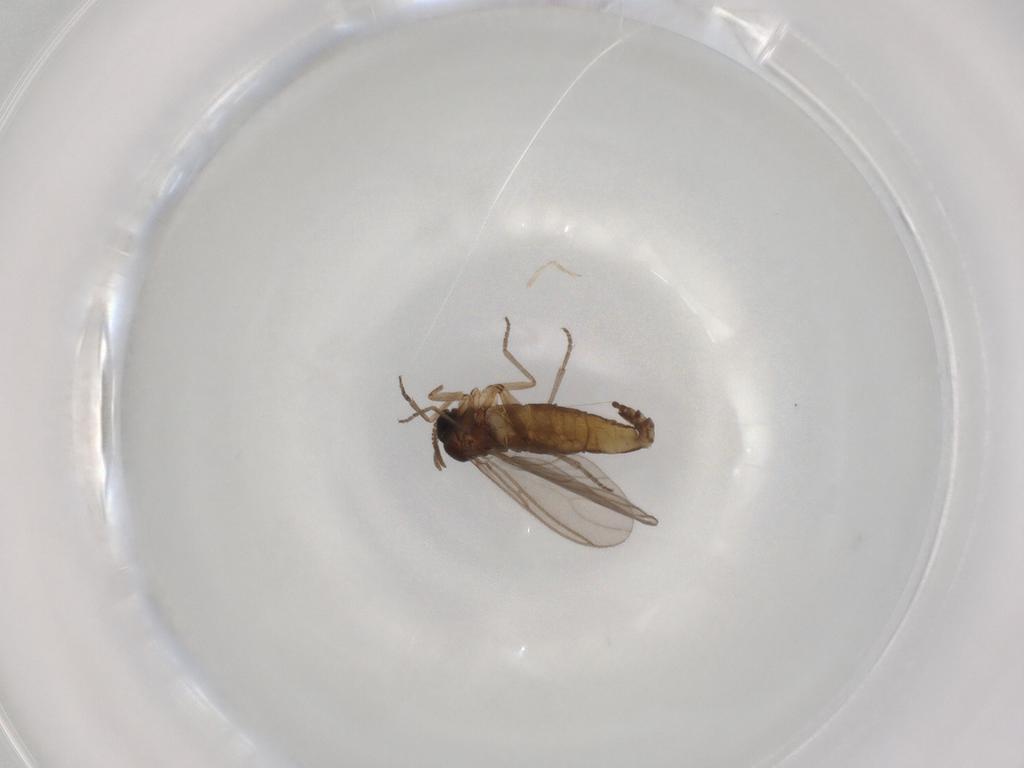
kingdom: Animalia
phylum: Arthropoda
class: Insecta
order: Diptera
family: Sciaridae
